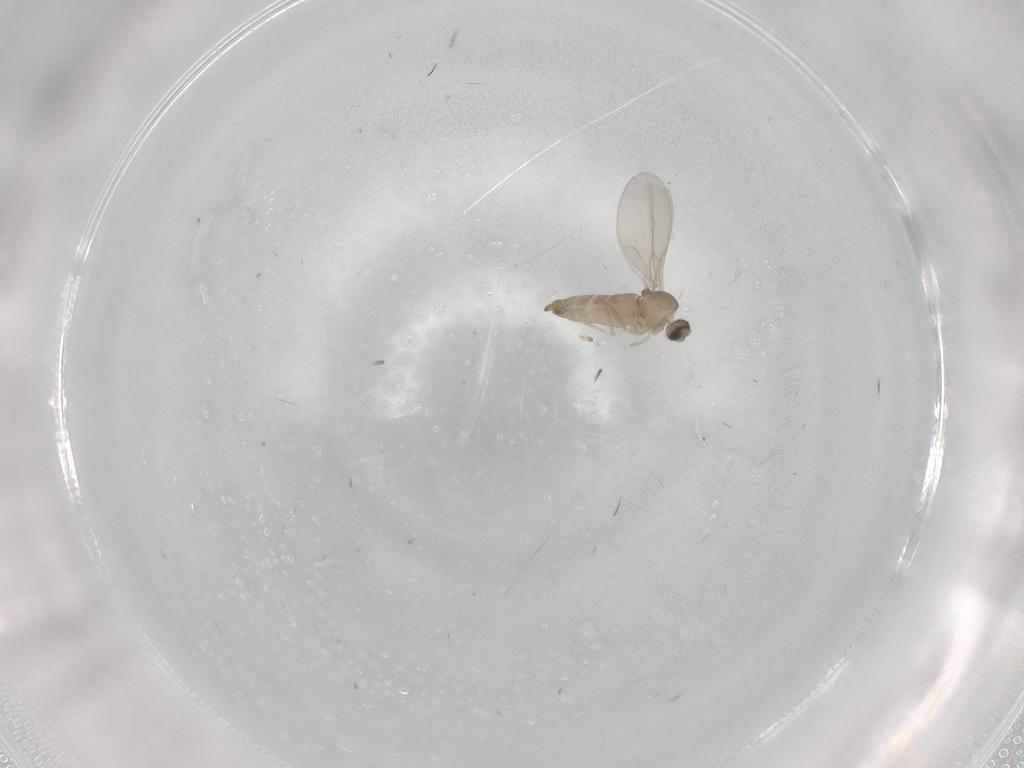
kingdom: Animalia
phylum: Arthropoda
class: Insecta
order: Diptera
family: Cecidomyiidae
